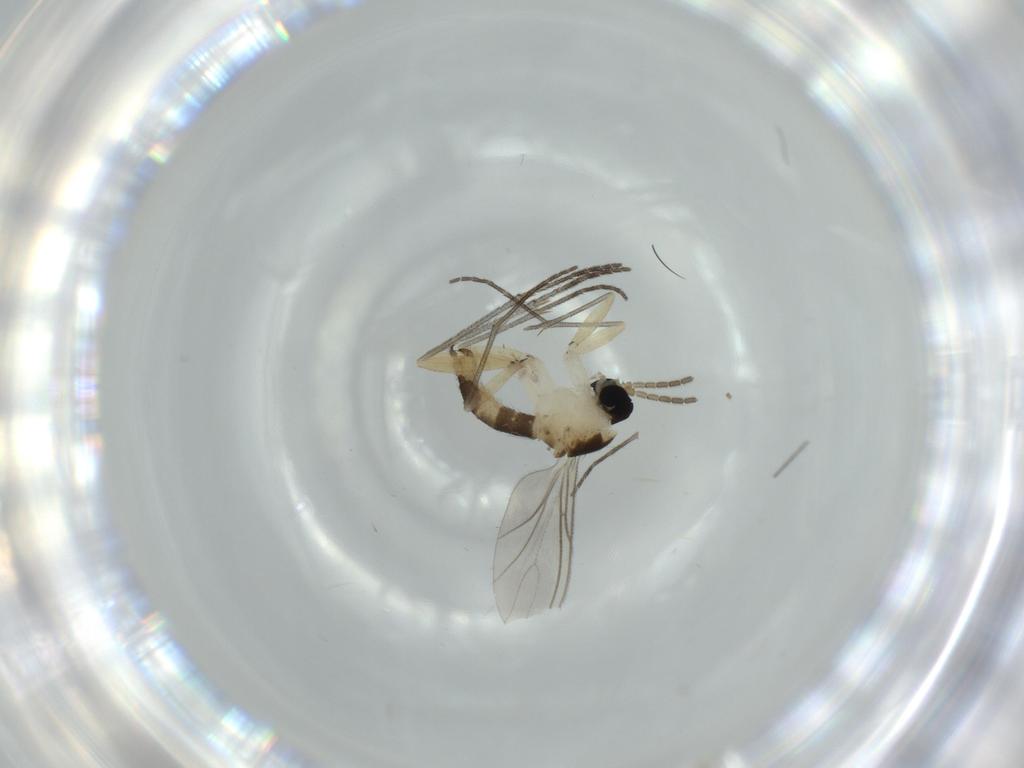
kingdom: Animalia
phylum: Arthropoda
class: Insecta
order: Diptera
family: Sciaridae
